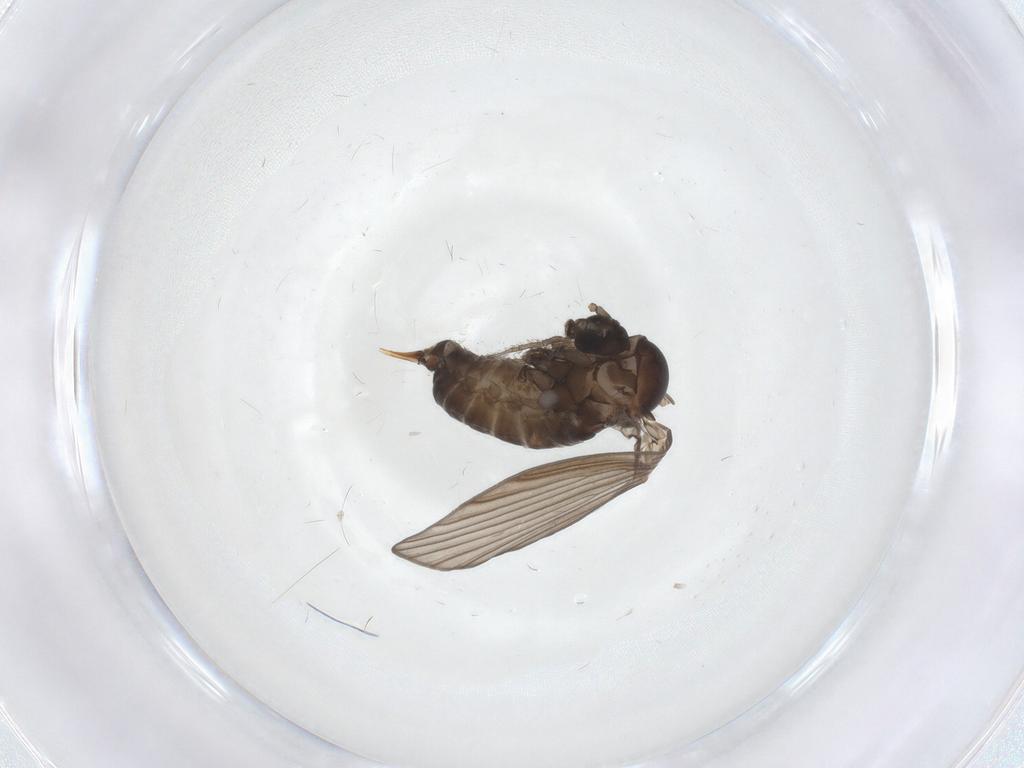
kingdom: Animalia
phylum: Arthropoda
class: Insecta
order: Diptera
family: Psychodidae
